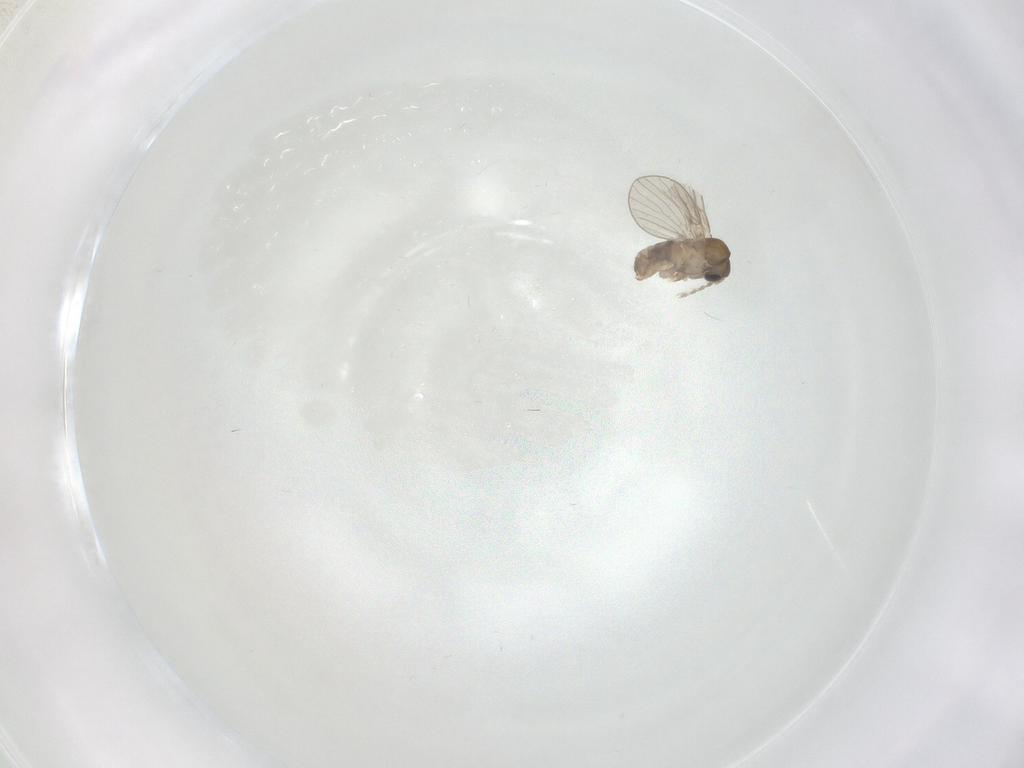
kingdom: Animalia
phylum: Arthropoda
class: Insecta
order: Diptera
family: Psychodidae
